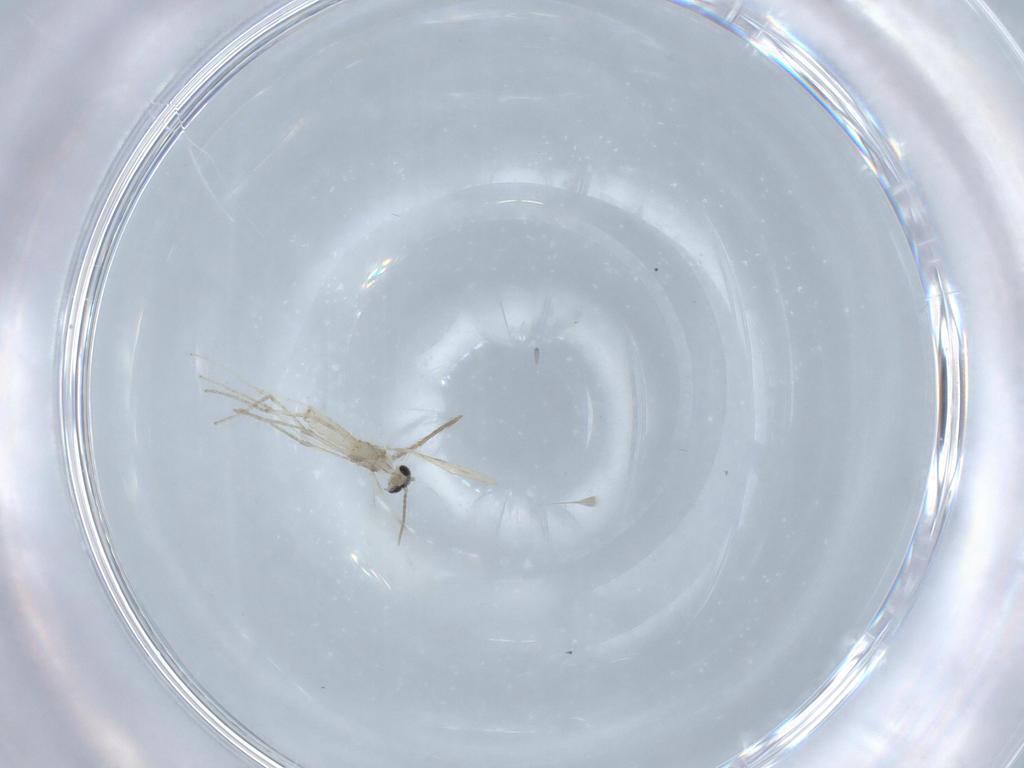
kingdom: Animalia
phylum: Arthropoda
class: Insecta
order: Diptera
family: Cecidomyiidae
